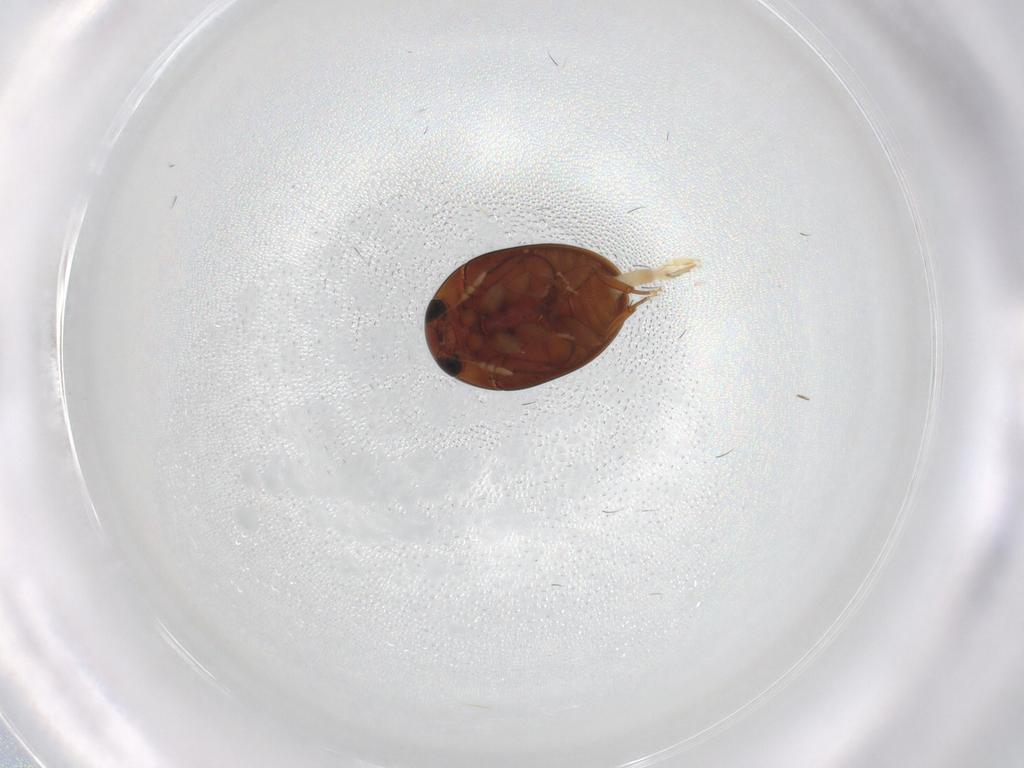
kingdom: Animalia
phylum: Arthropoda
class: Insecta
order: Coleoptera
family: Phalacridae
